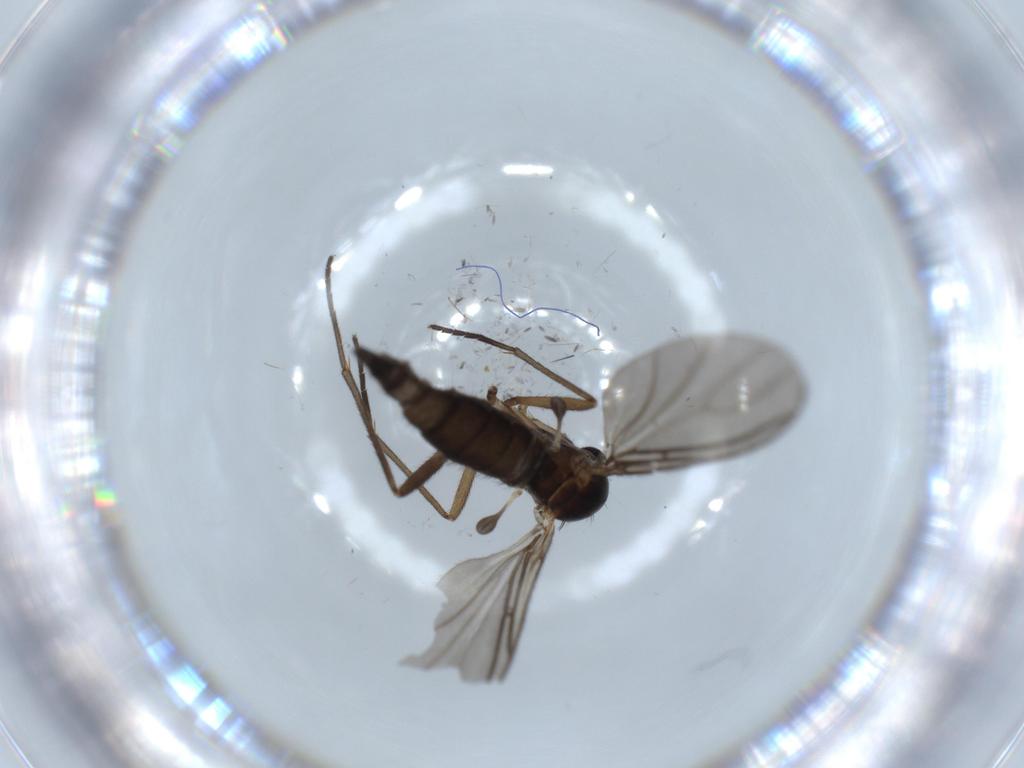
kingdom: Animalia
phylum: Arthropoda
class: Insecta
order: Diptera
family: Sciaridae
